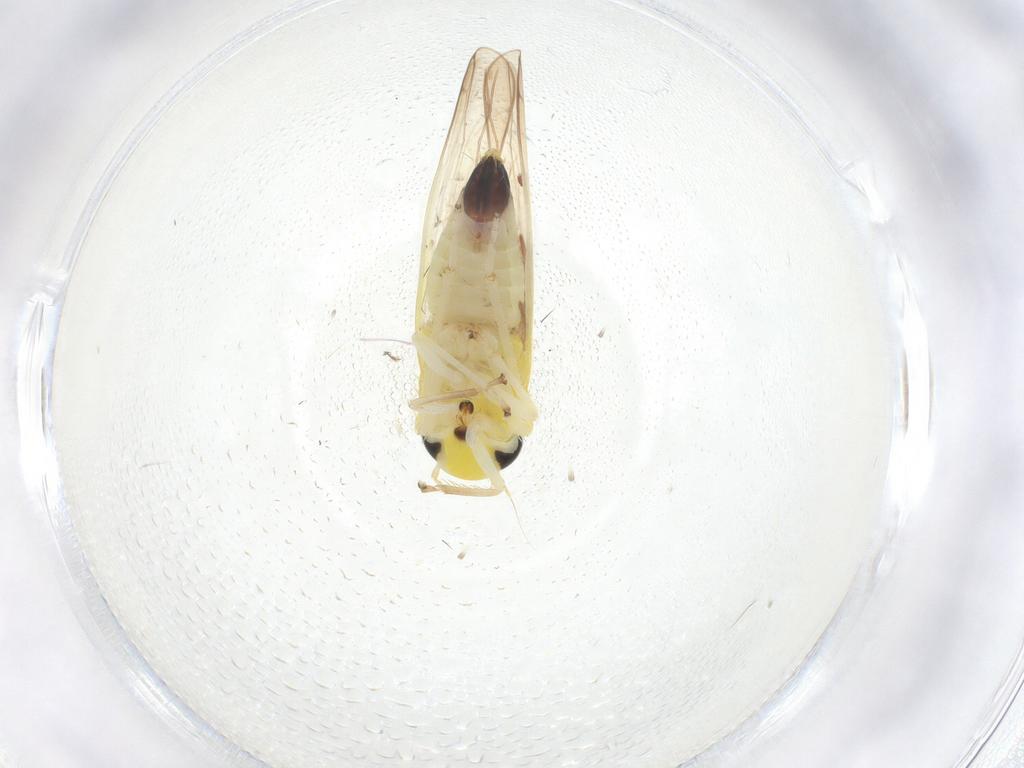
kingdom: Animalia
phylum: Arthropoda
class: Insecta
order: Hemiptera
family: Cicadellidae
